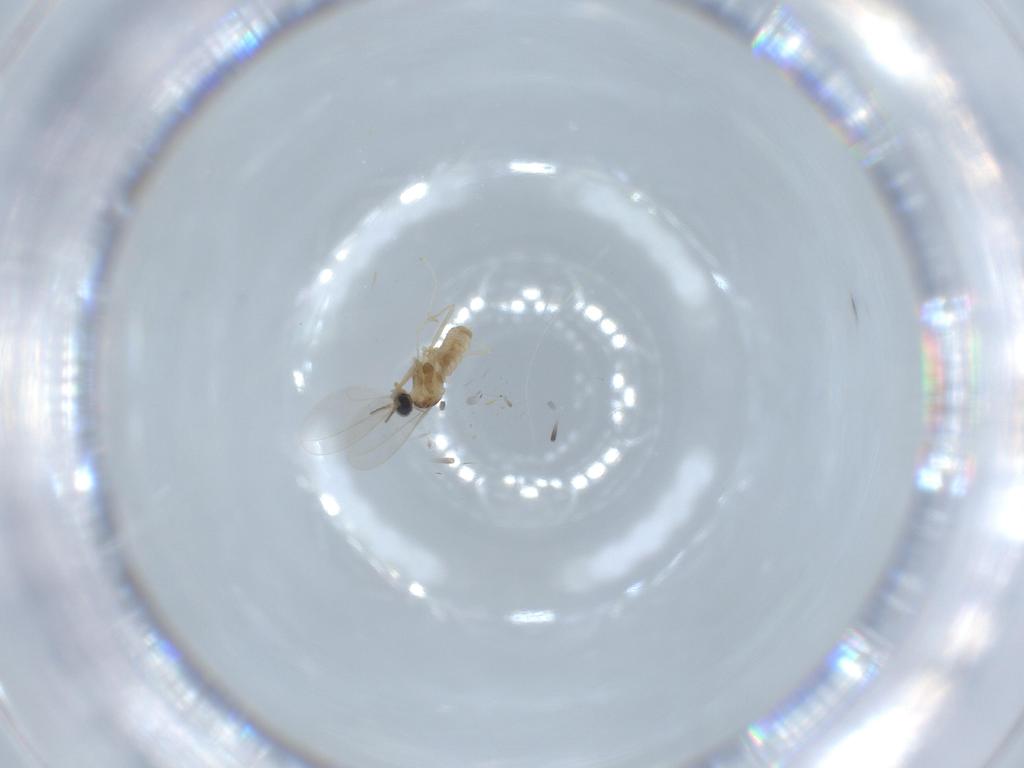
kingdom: Animalia
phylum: Arthropoda
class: Insecta
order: Diptera
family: Cecidomyiidae
